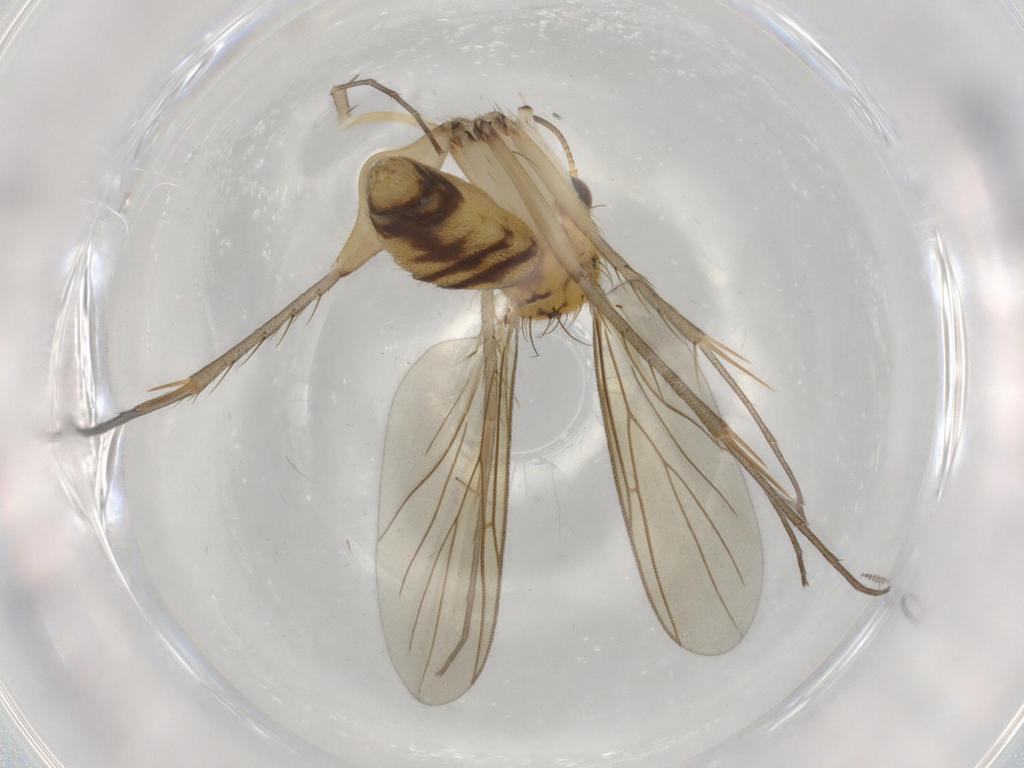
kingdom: Animalia
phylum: Arthropoda
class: Insecta
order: Diptera
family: Mycetophilidae
